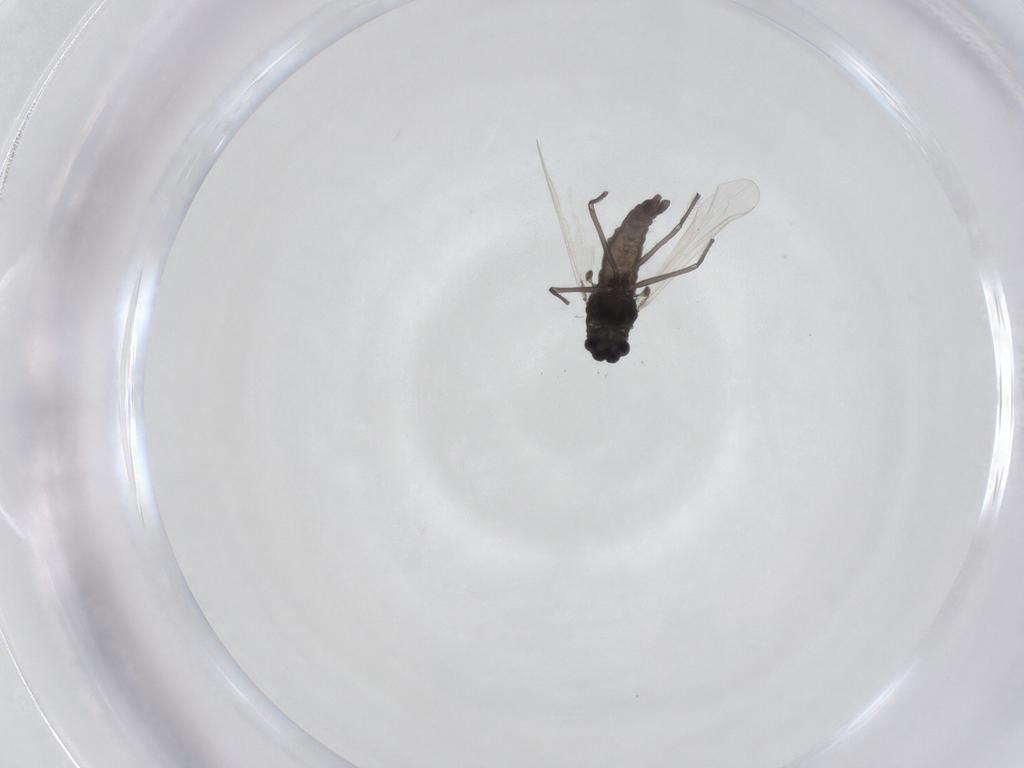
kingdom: Animalia
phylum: Arthropoda
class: Insecta
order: Diptera
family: Chironomidae
